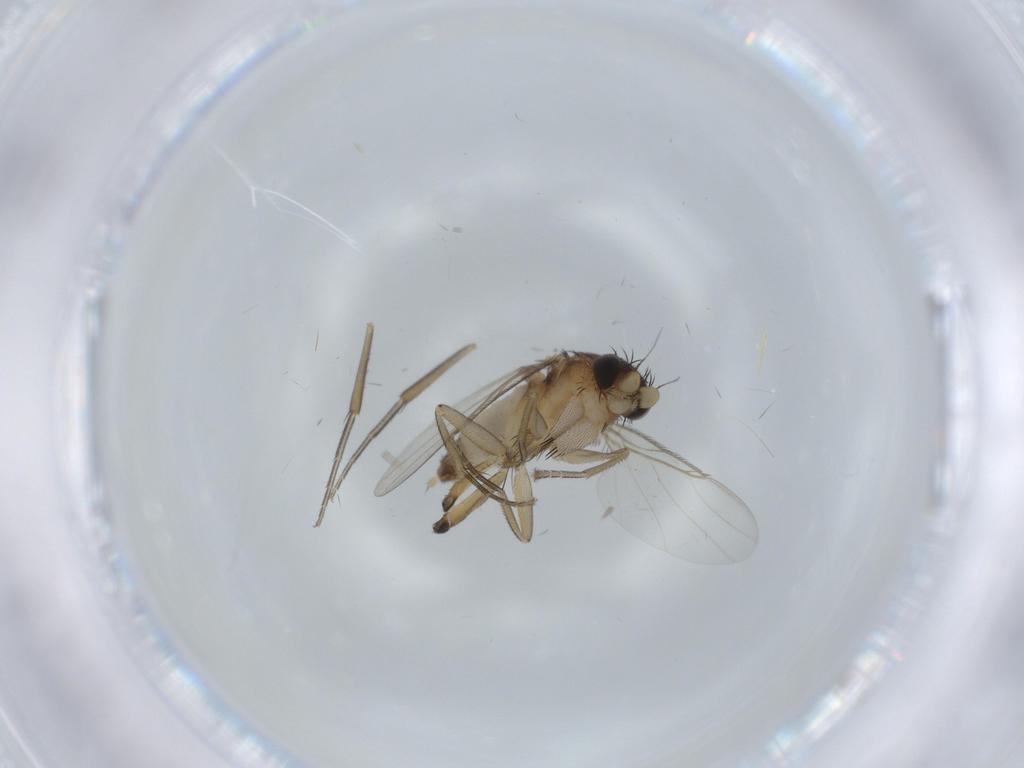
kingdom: Animalia
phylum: Arthropoda
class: Insecta
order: Diptera
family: Phoridae
